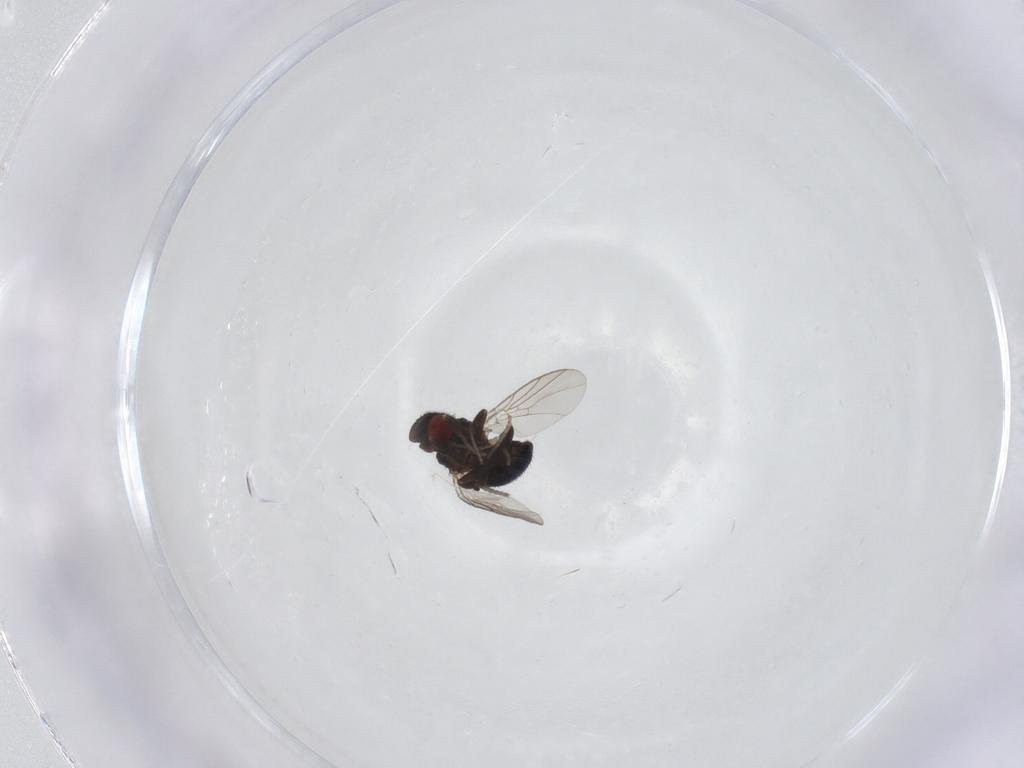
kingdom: Animalia
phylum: Arthropoda
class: Insecta
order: Diptera
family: Cryptochetidae
